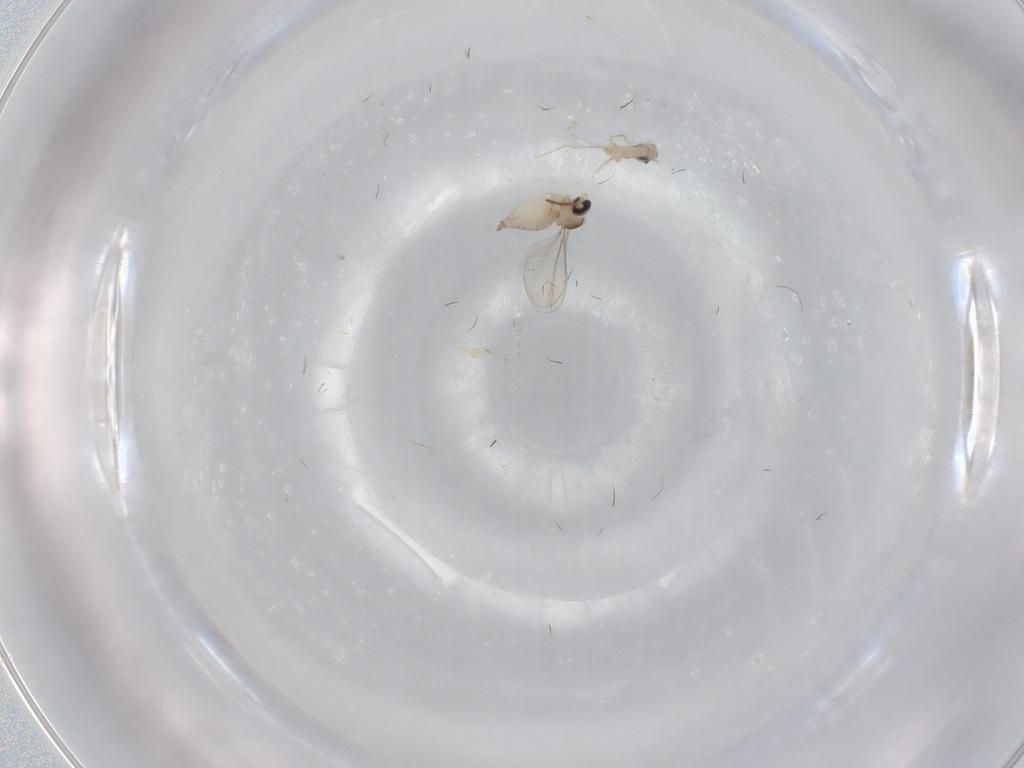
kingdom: Animalia
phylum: Arthropoda
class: Insecta
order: Diptera
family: Cecidomyiidae
